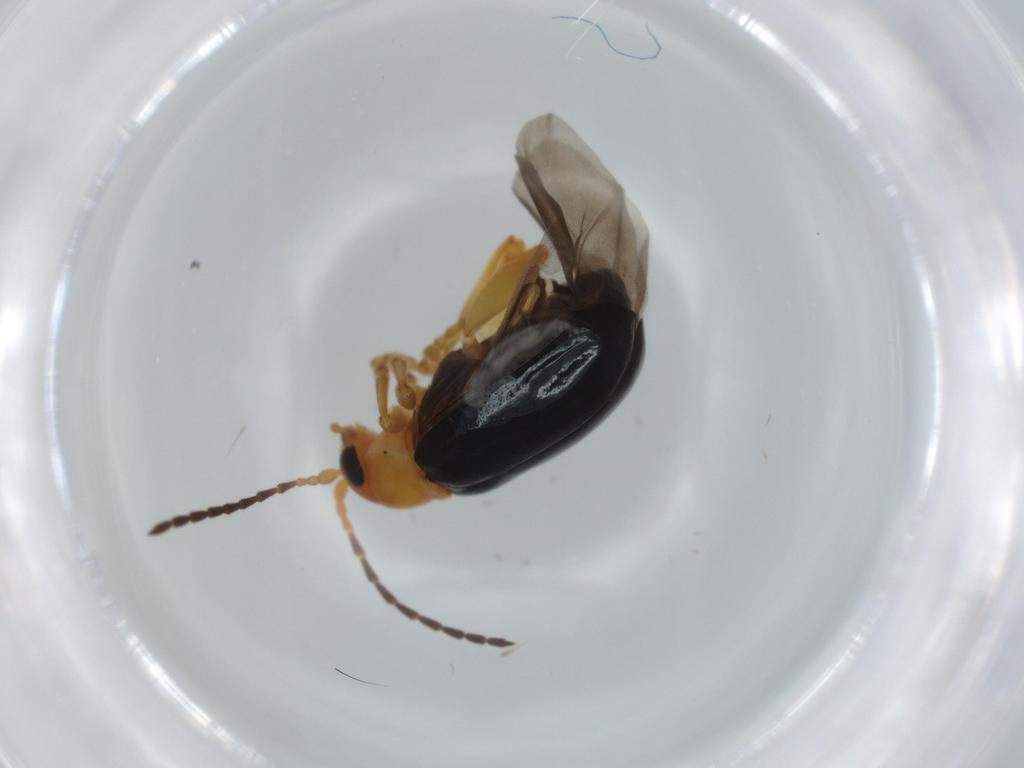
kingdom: Animalia
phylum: Arthropoda
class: Insecta
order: Coleoptera
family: Chrysomelidae
